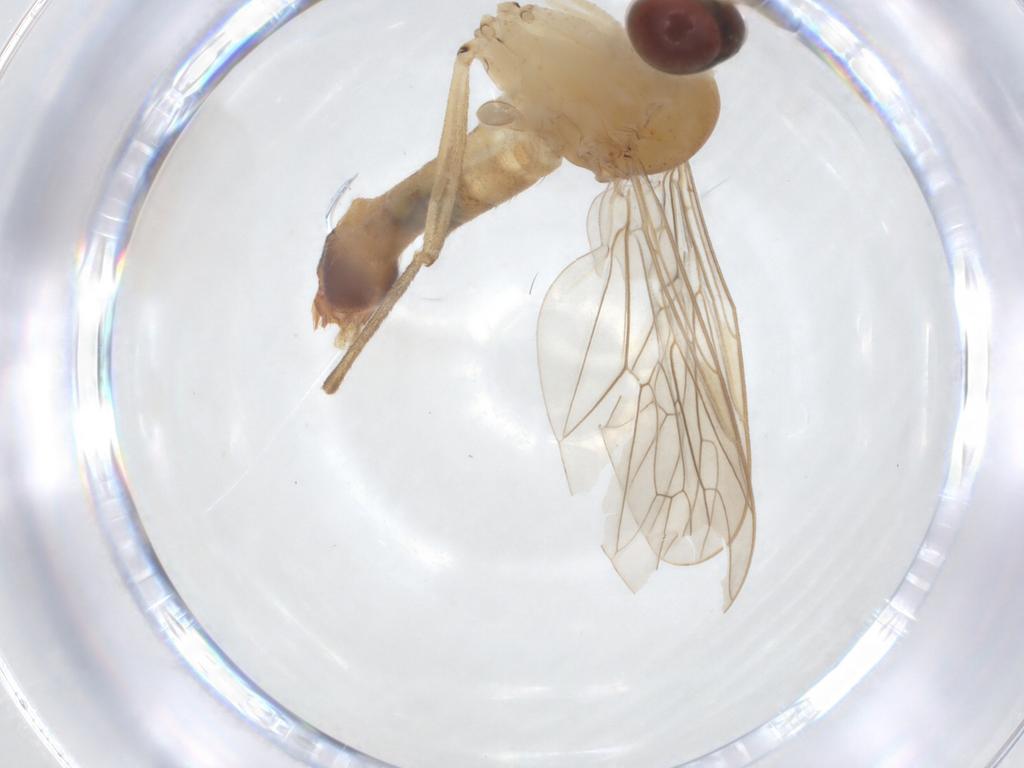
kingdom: Animalia
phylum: Arthropoda
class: Insecta
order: Diptera
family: Apsilocephalidae
